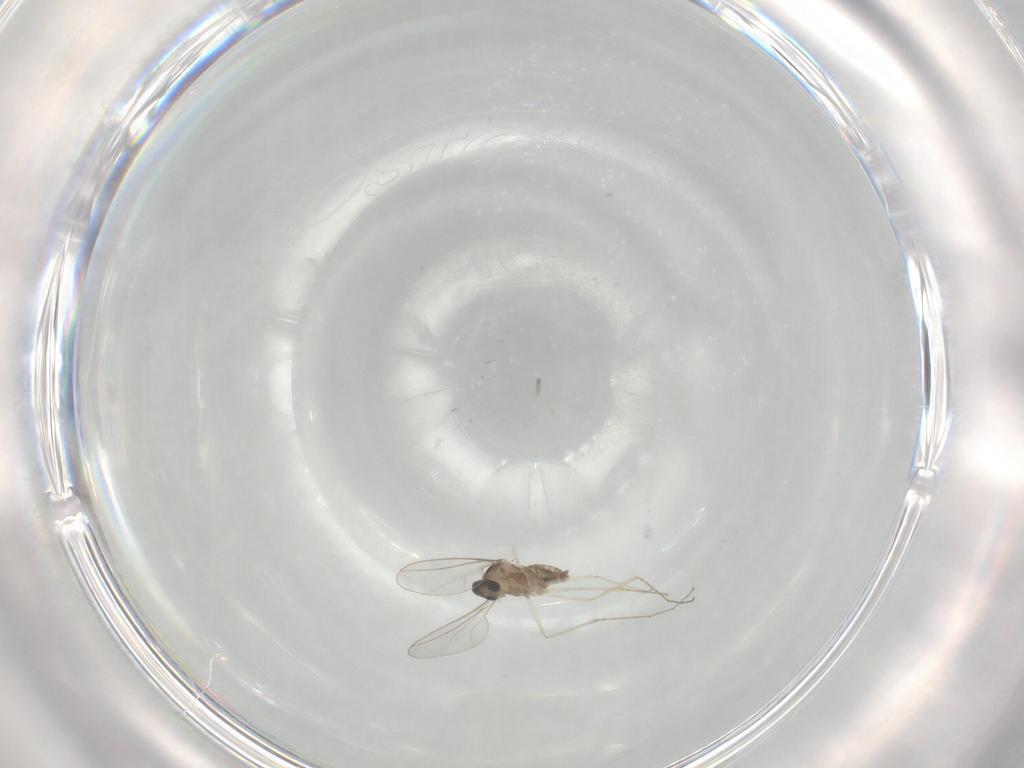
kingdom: Animalia
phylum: Arthropoda
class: Insecta
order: Diptera
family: Cecidomyiidae
